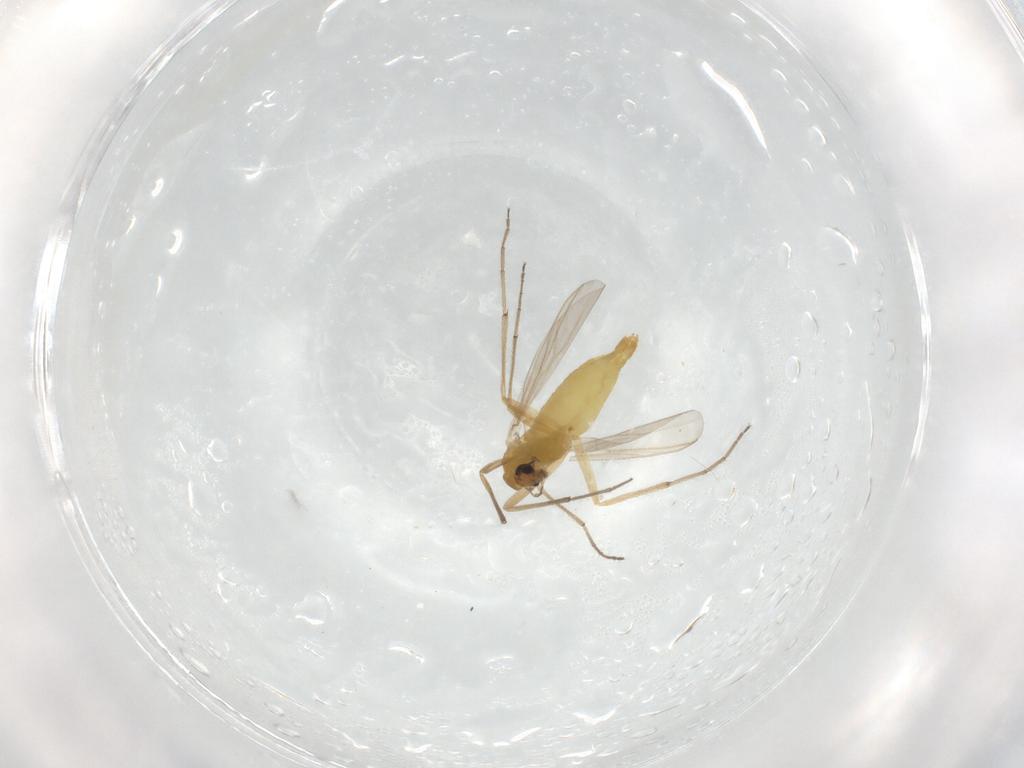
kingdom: Animalia
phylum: Arthropoda
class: Insecta
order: Diptera
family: Chironomidae
